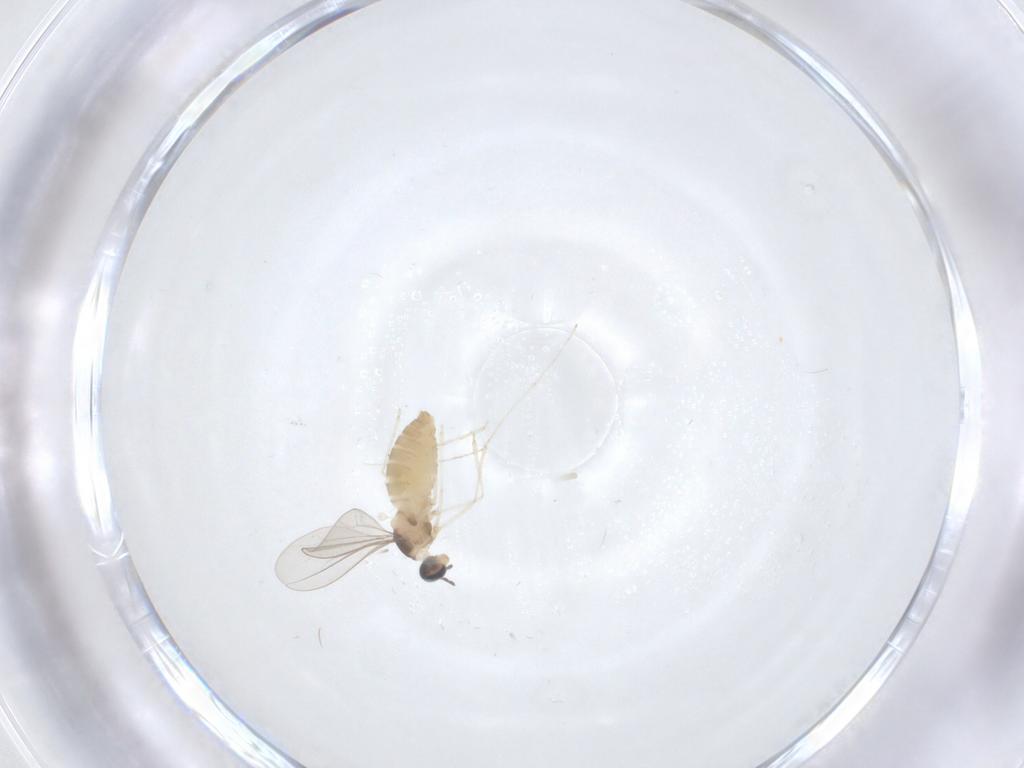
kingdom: Animalia
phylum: Arthropoda
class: Insecta
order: Diptera
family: Cecidomyiidae
